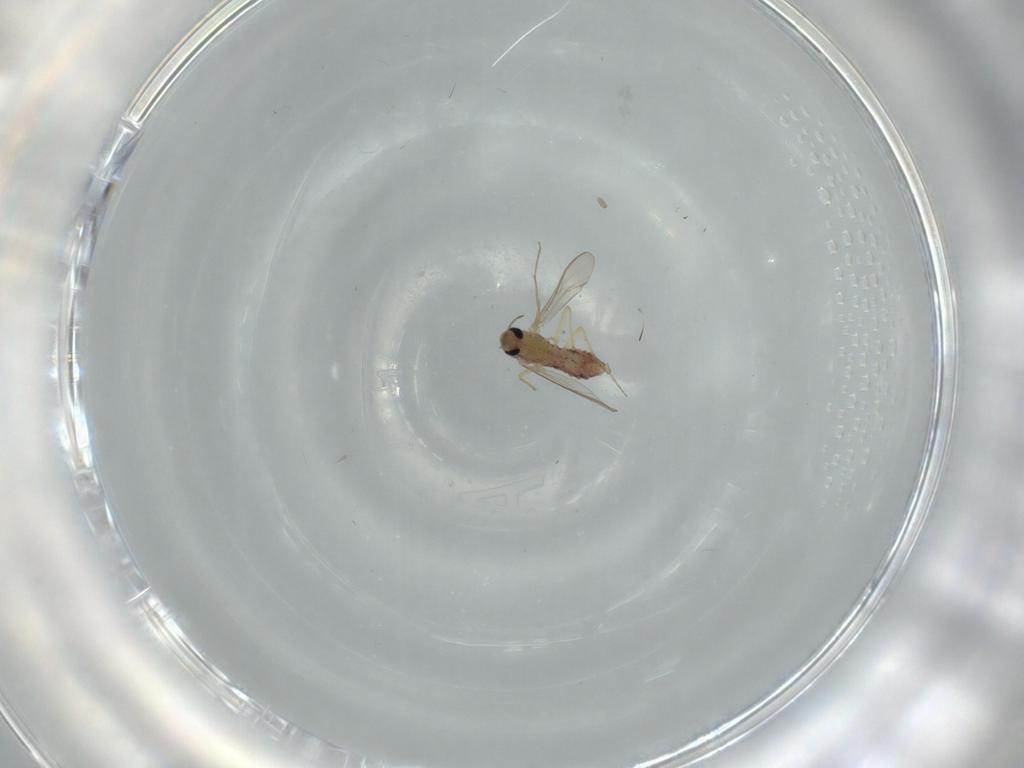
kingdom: Animalia
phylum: Arthropoda
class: Insecta
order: Diptera
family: Chironomidae
